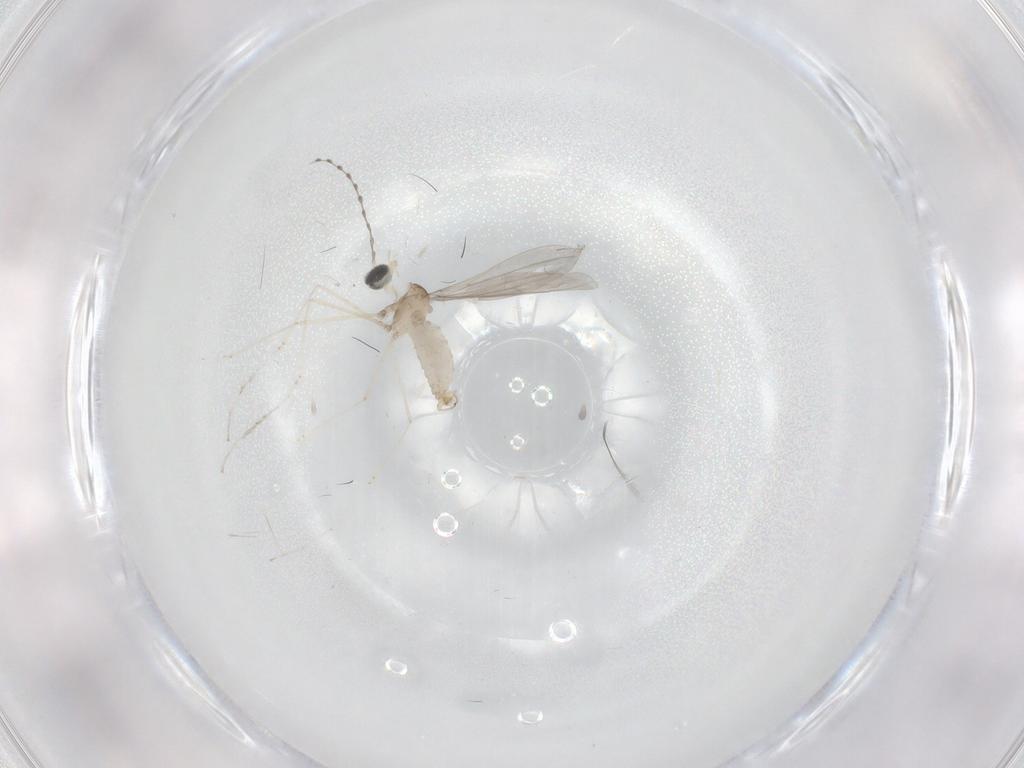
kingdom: Animalia
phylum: Arthropoda
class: Insecta
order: Diptera
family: Cecidomyiidae
